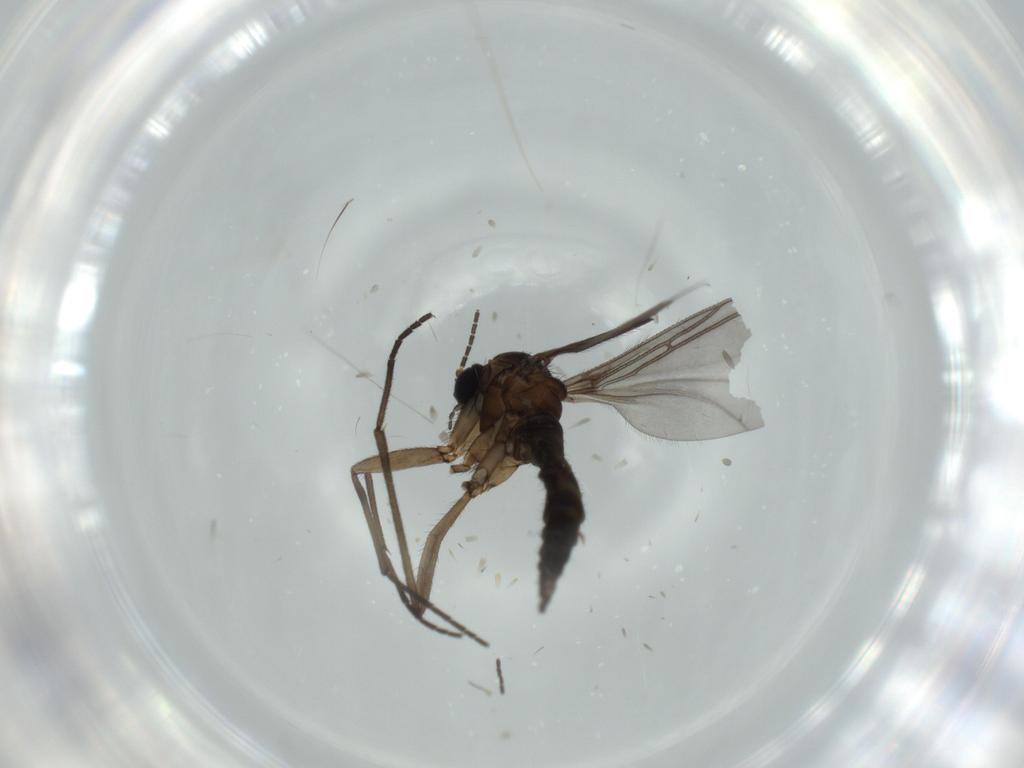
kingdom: Animalia
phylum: Arthropoda
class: Insecta
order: Diptera
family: Sciaridae
